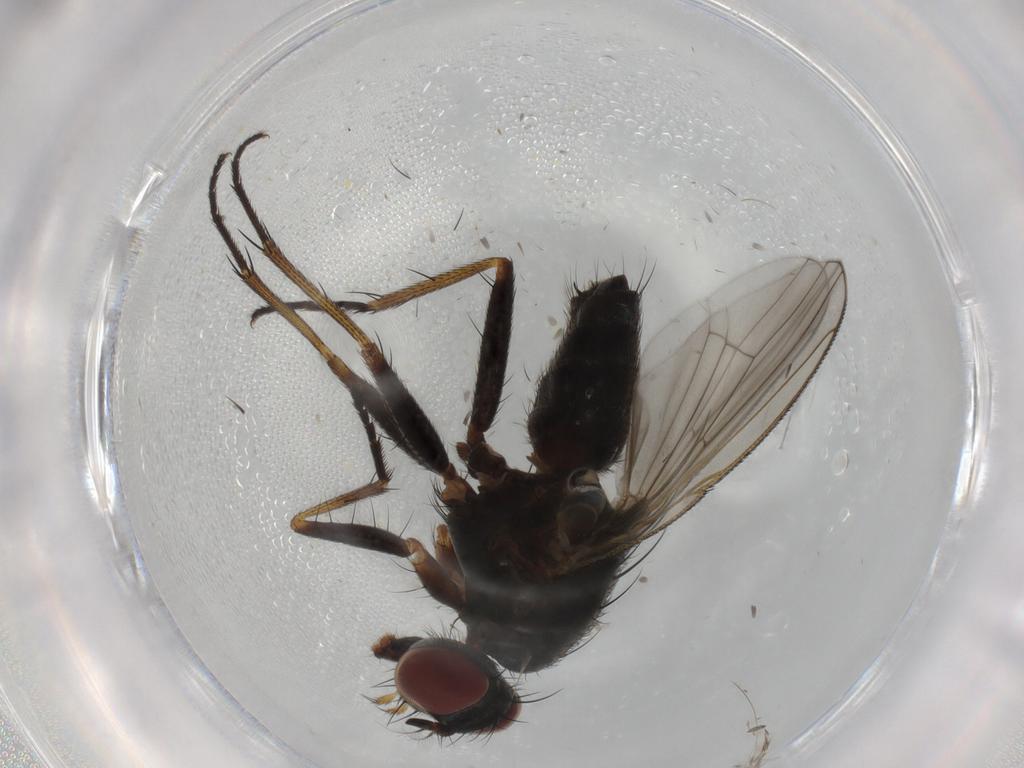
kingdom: Animalia
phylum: Arthropoda
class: Insecta
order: Diptera
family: Muscidae
